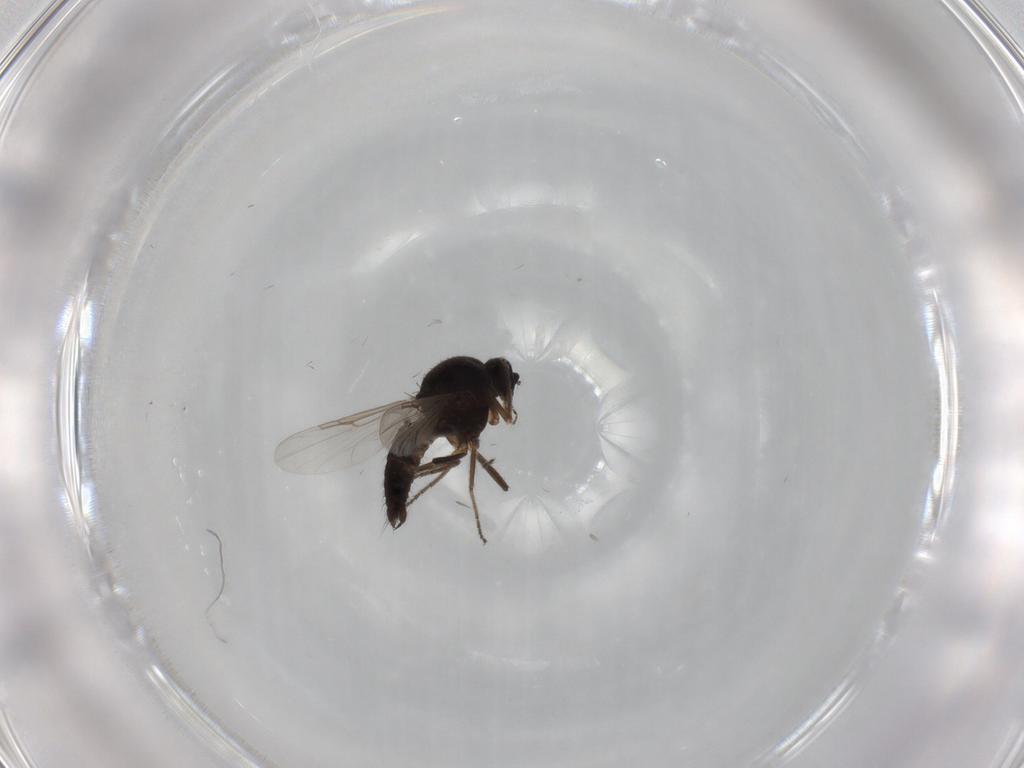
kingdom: Animalia
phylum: Arthropoda
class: Insecta
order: Diptera
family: Ceratopogonidae
